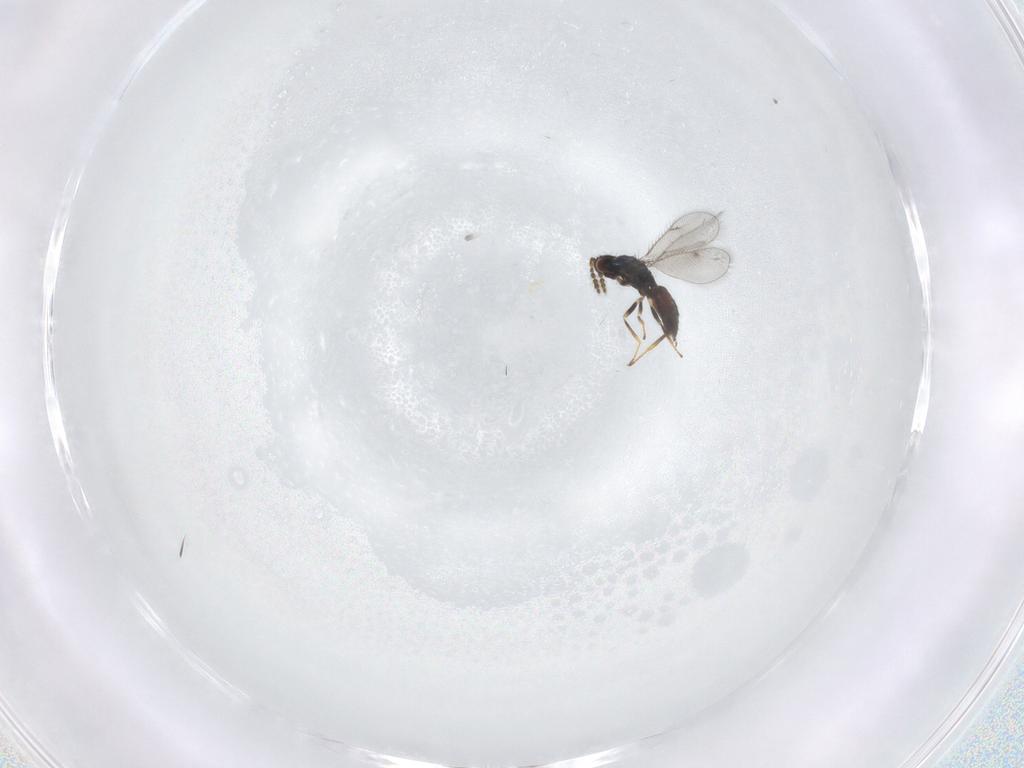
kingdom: Animalia
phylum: Arthropoda
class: Insecta
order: Hymenoptera
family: Eulophidae
